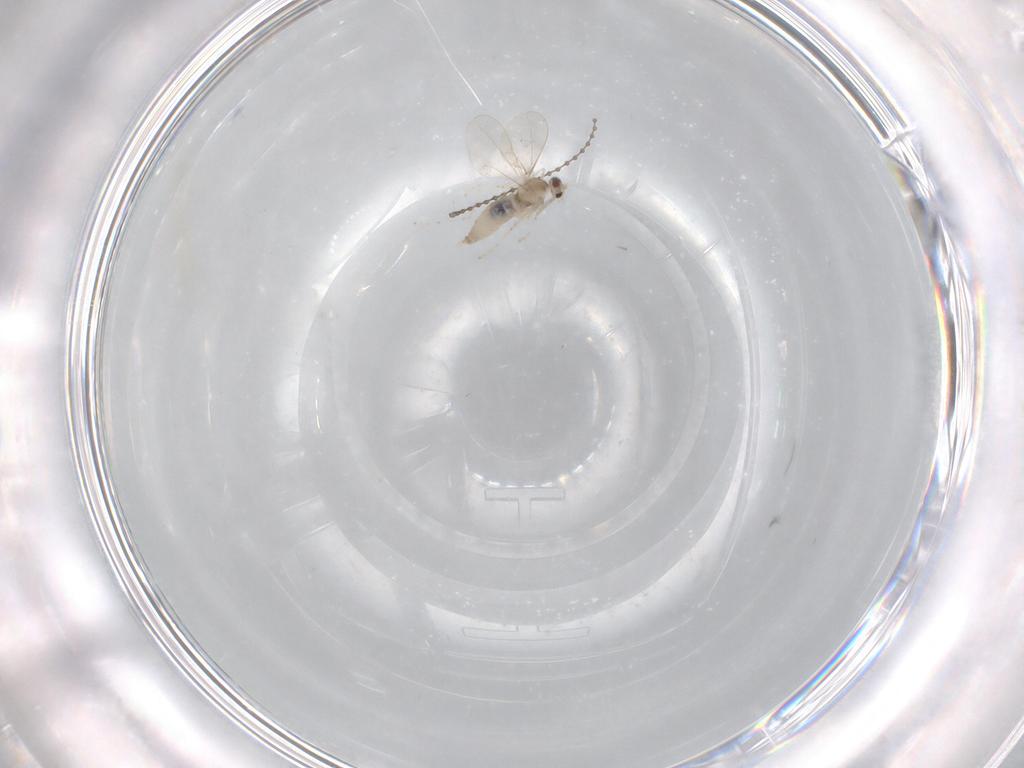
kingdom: Animalia
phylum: Arthropoda
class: Insecta
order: Diptera
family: Cecidomyiidae
